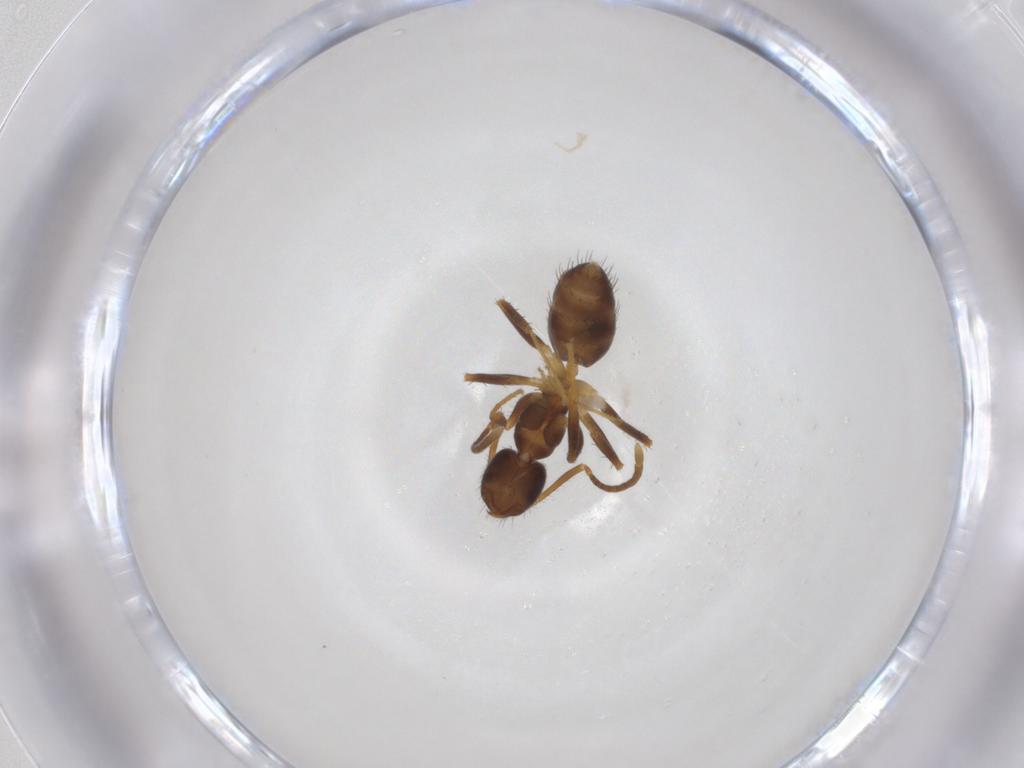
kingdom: Animalia
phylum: Arthropoda
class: Insecta
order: Hymenoptera
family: Formicidae
